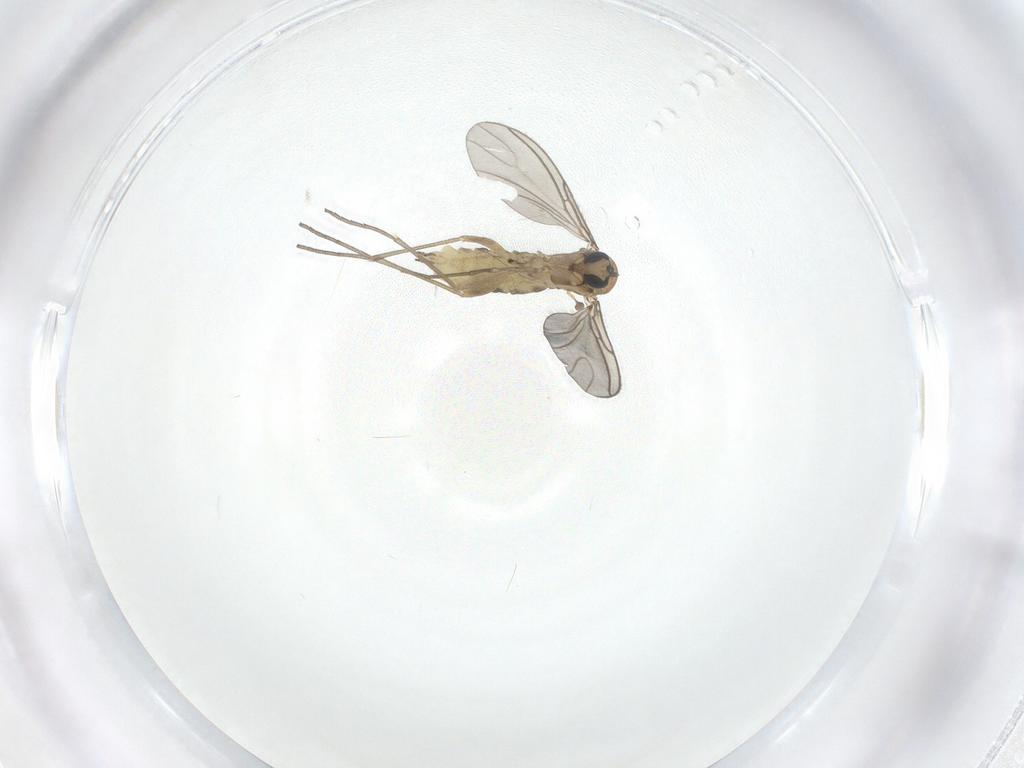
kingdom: Animalia
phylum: Arthropoda
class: Insecta
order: Diptera
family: Sciaridae
